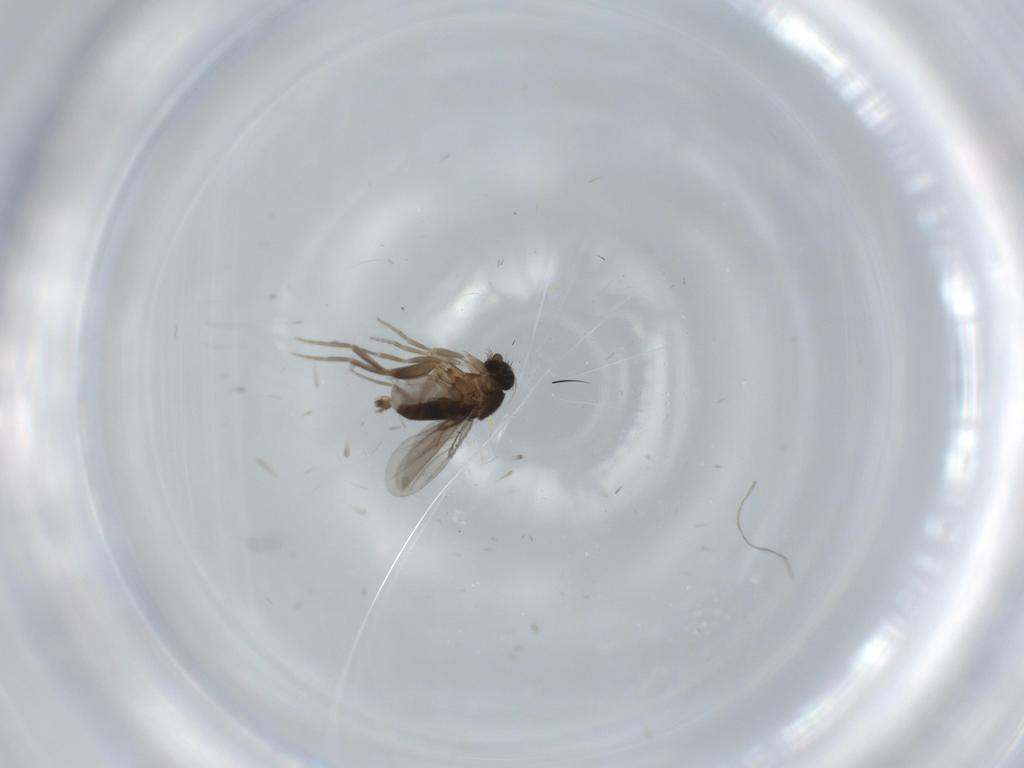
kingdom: Animalia
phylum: Arthropoda
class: Insecta
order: Diptera
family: Phoridae
